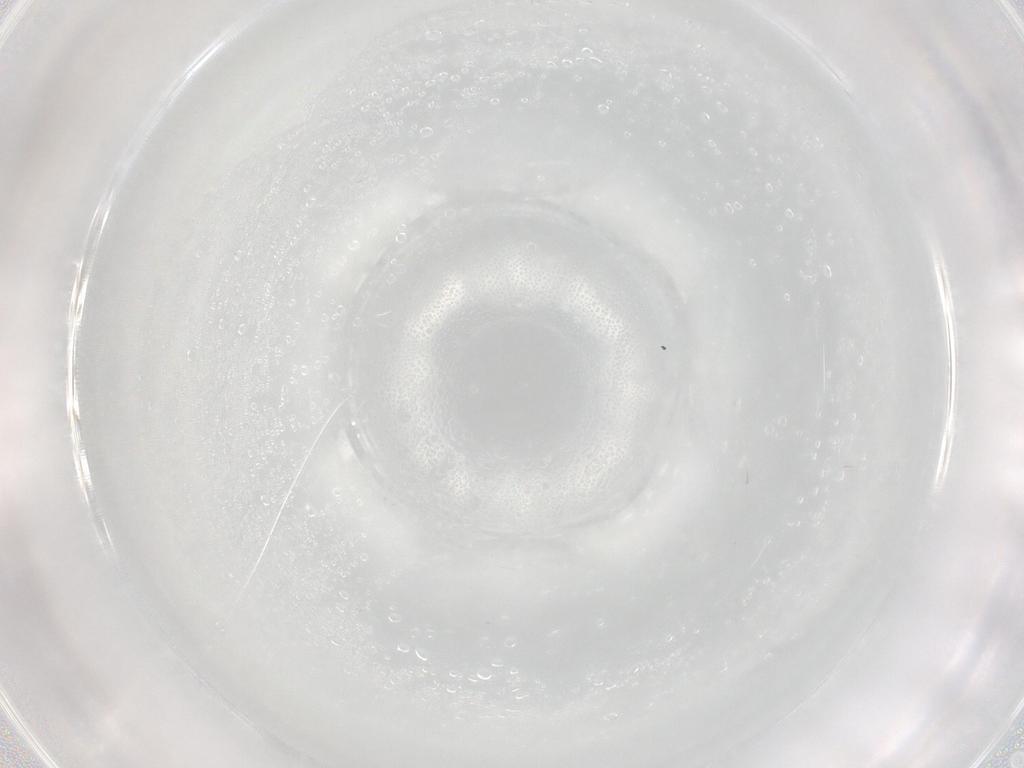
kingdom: Animalia
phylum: Arthropoda
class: Insecta
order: Diptera
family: Cecidomyiidae
